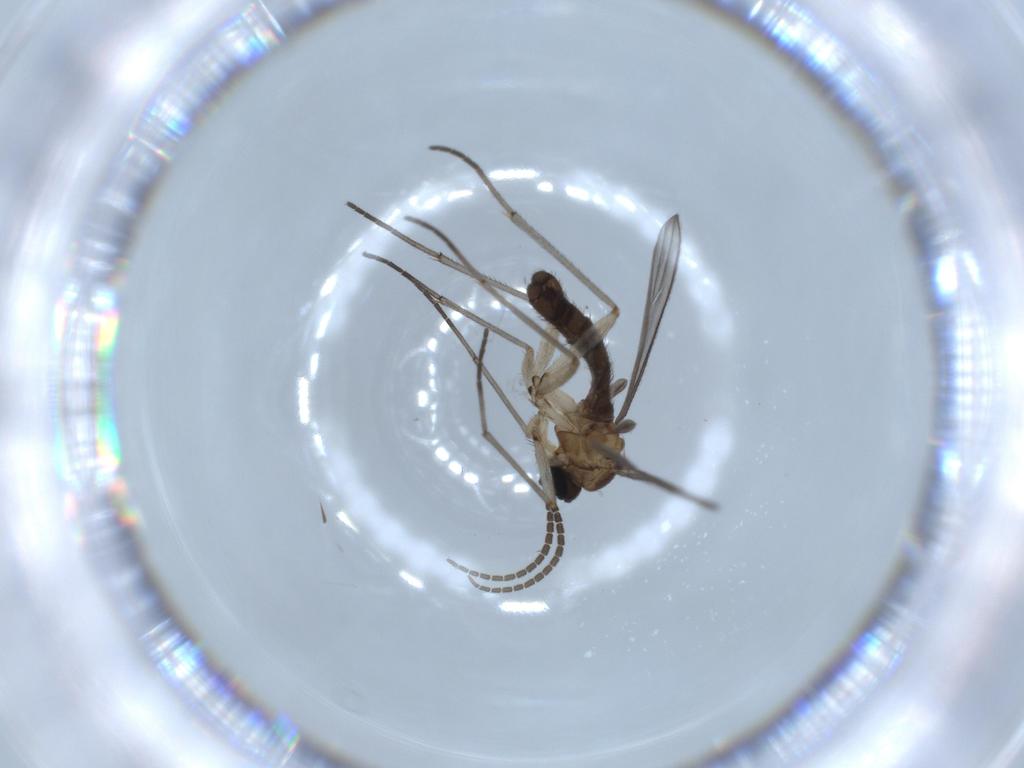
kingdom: Animalia
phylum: Arthropoda
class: Insecta
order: Diptera
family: Sciaridae
